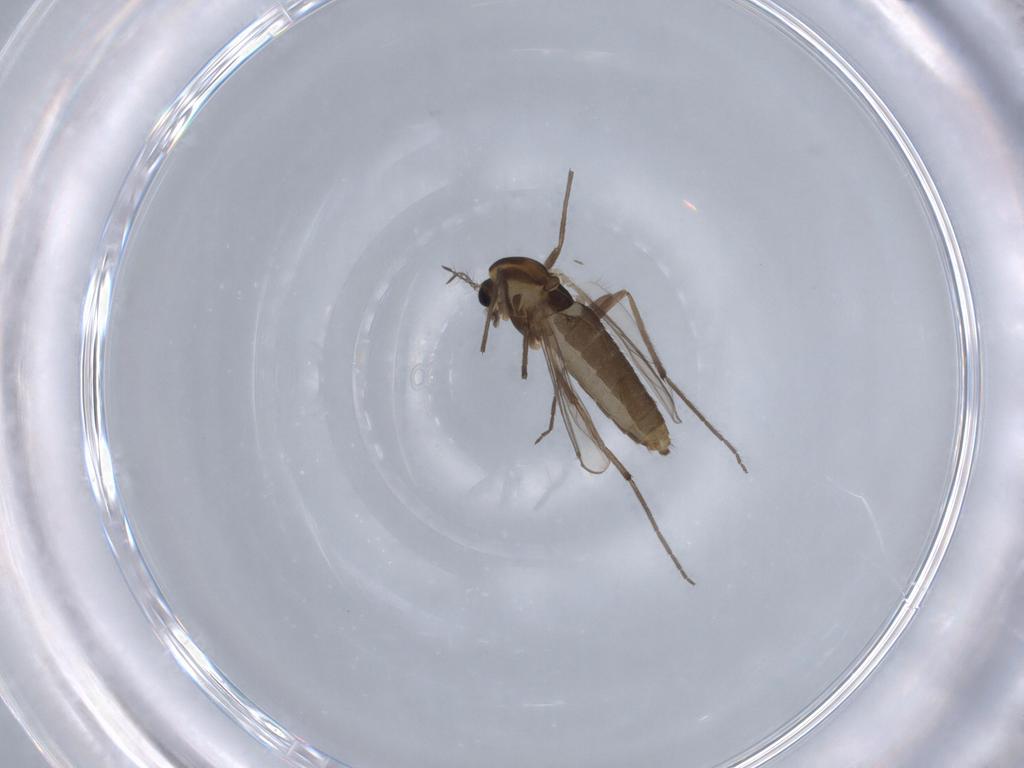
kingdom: Animalia
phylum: Arthropoda
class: Insecta
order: Diptera
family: Chironomidae
